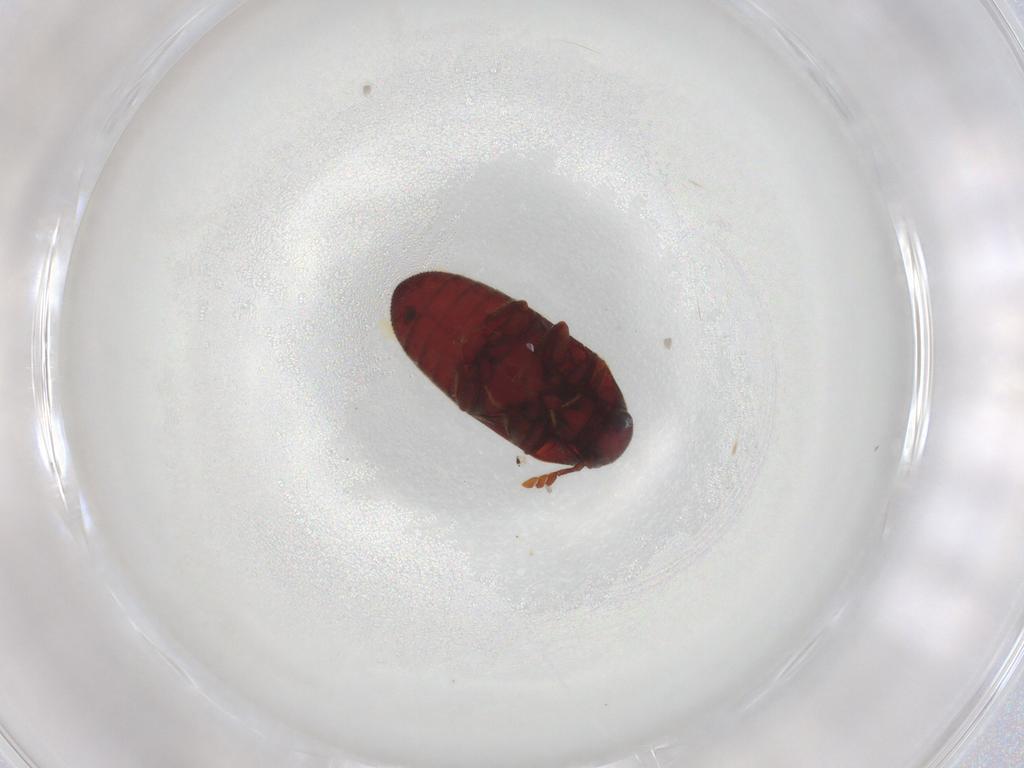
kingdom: Animalia
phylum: Arthropoda
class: Insecta
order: Coleoptera
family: Throscidae
